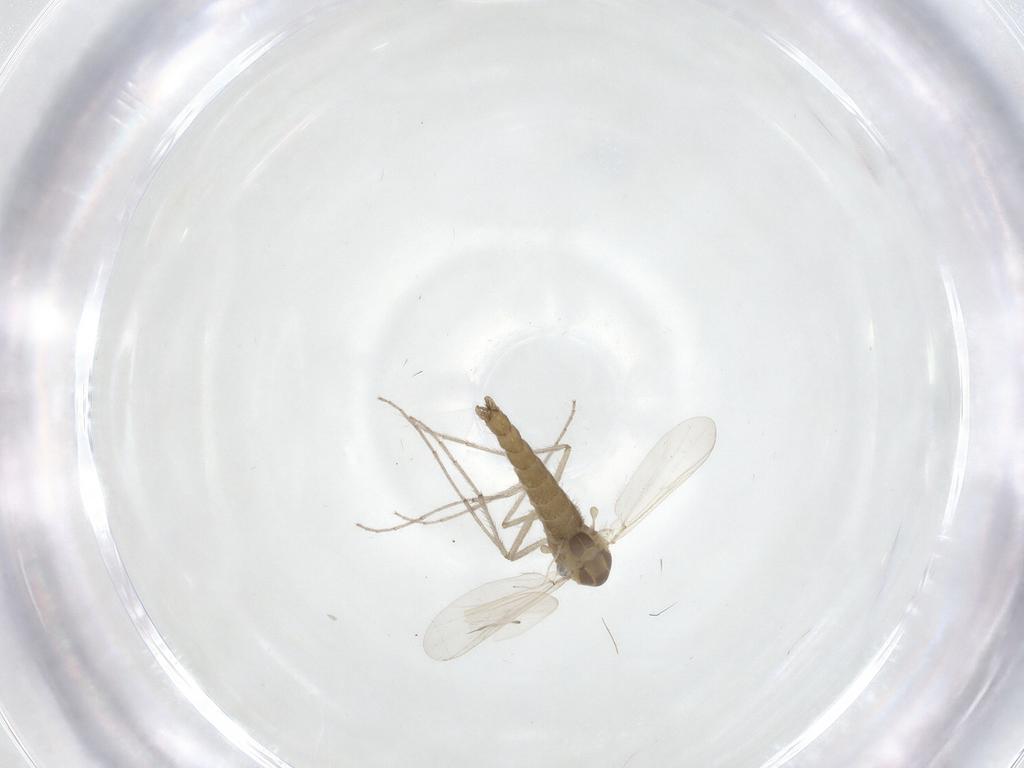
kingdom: Animalia
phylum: Arthropoda
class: Insecta
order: Diptera
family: Chironomidae
